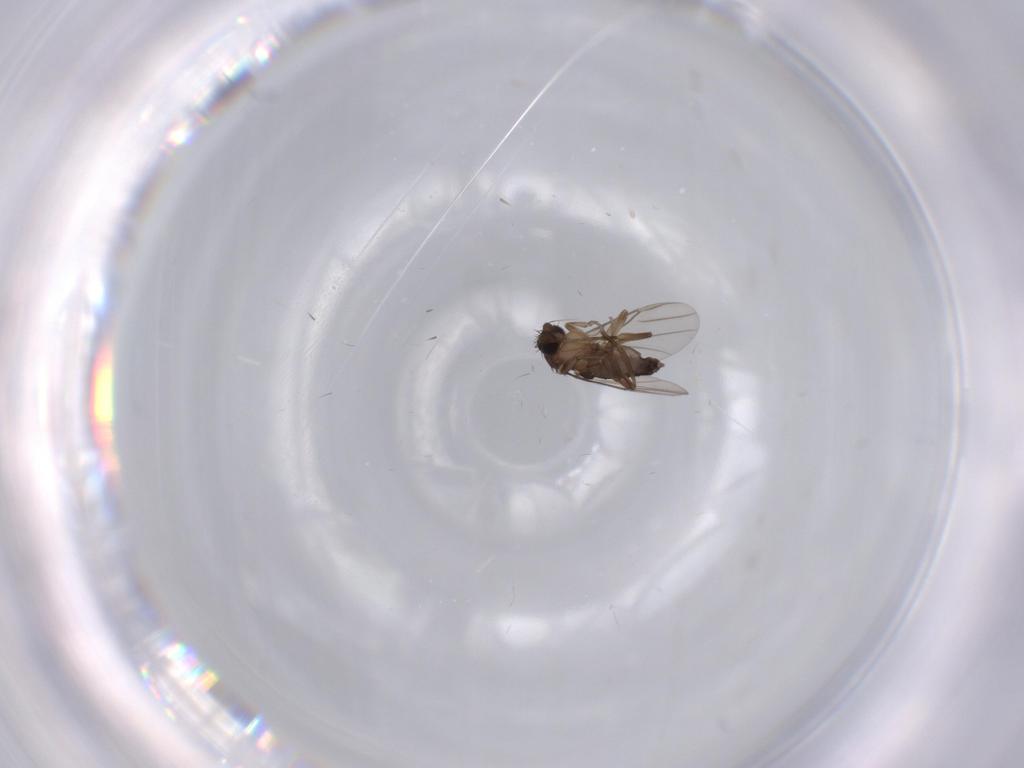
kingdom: Animalia
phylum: Arthropoda
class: Insecta
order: Diptera
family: Phoridae
